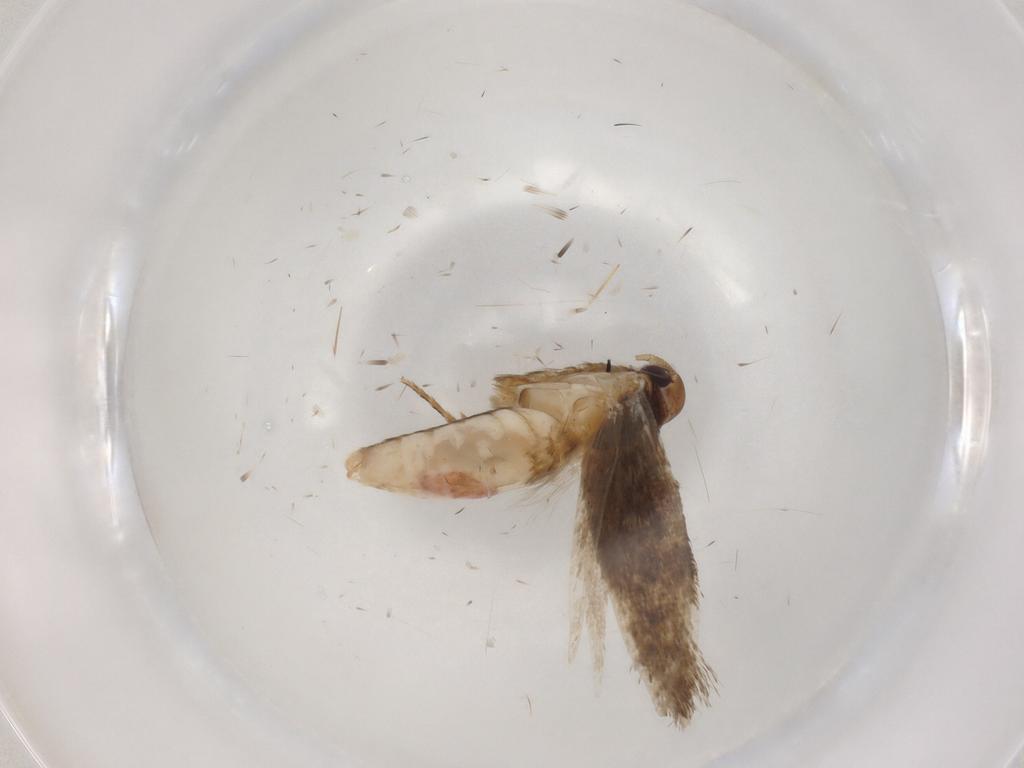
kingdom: Animalia
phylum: Arthropoda
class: Insecta
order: Lepidoptera
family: Cosmopterigidae
